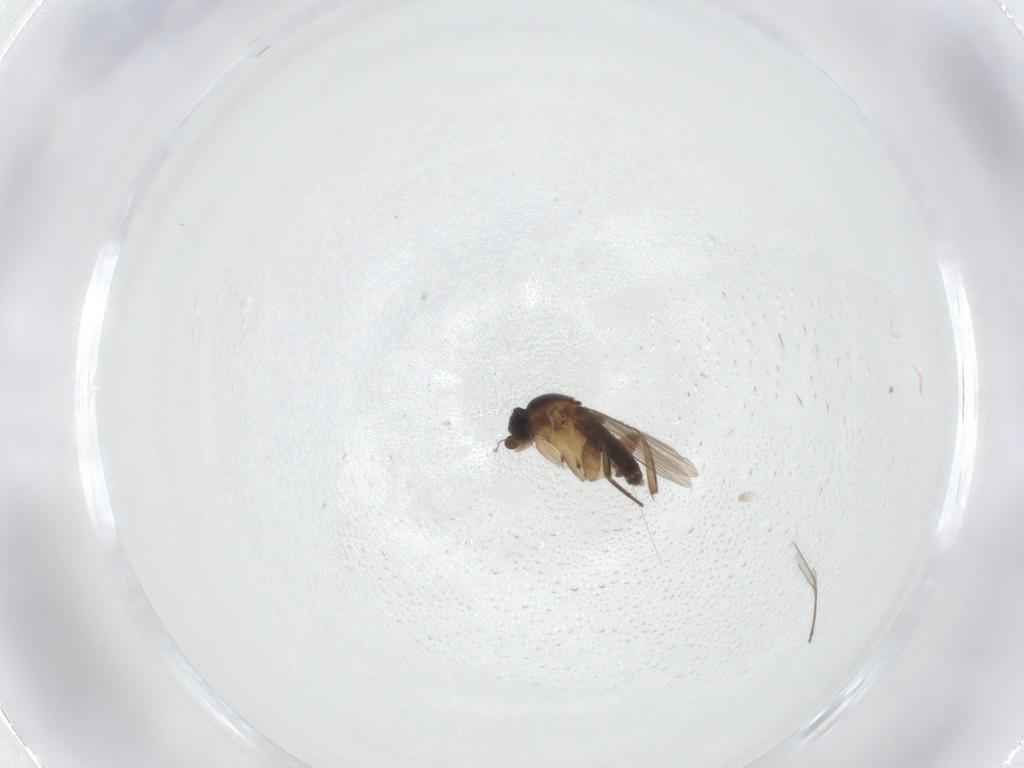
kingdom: Animalia
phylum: Arthropoda
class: Insecta
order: Diptera
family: Phoridae
